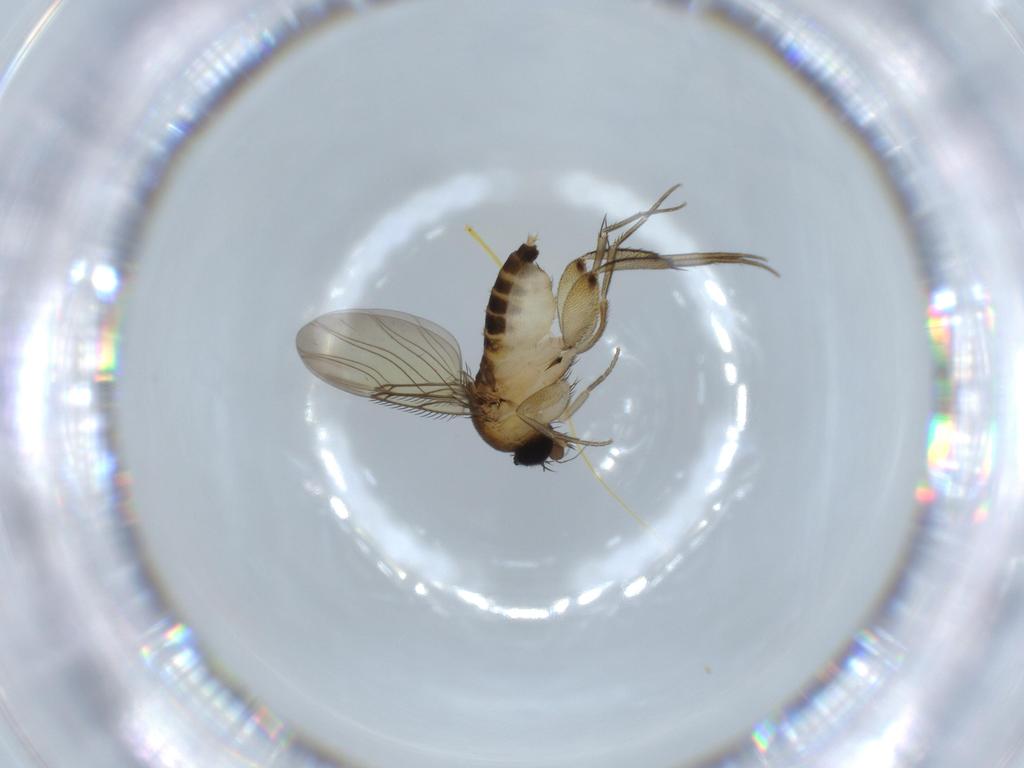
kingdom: Animalia
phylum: Arthropoda
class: Insecta
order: Diptera
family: Phoridae
